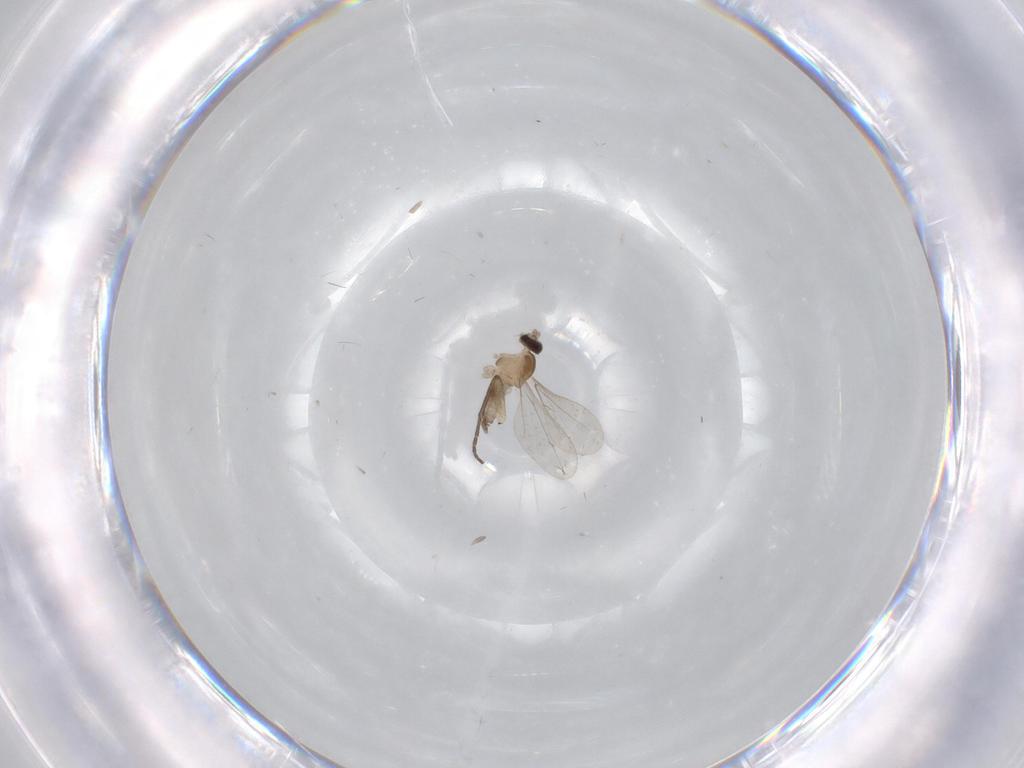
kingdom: Animalia
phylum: Arthropoda
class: Insecta
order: Diptera
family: Cecidomyiidae
